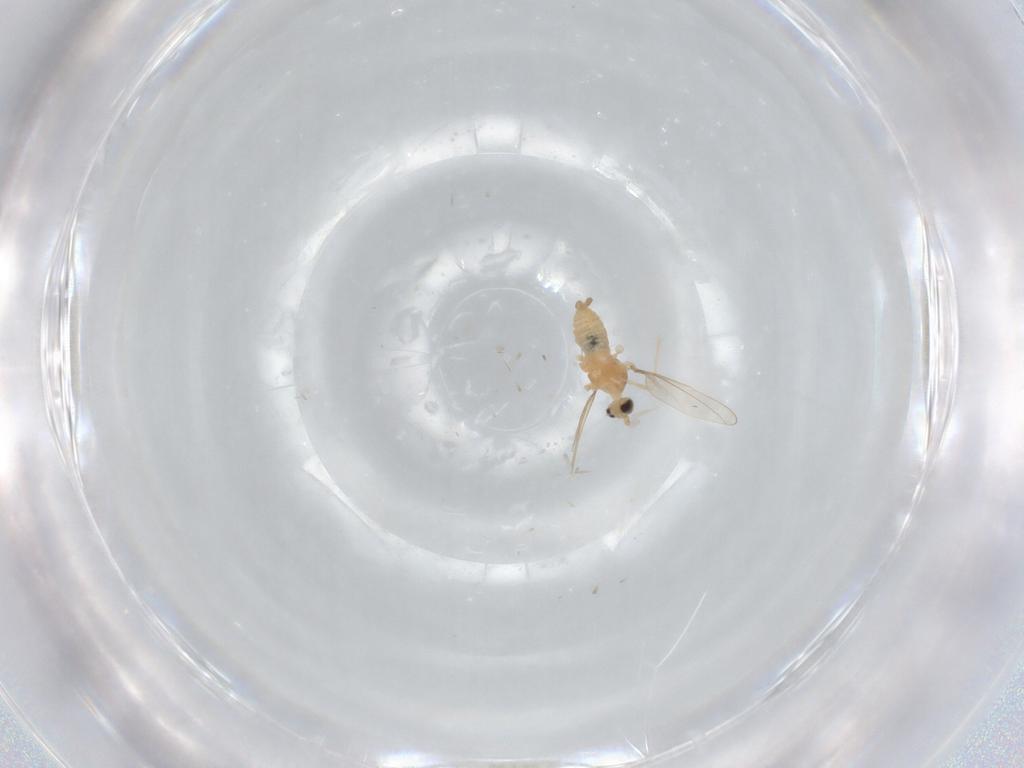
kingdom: Animalia
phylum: Arthropoda
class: Insecta
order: Diptera
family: Cecidomyiidae
